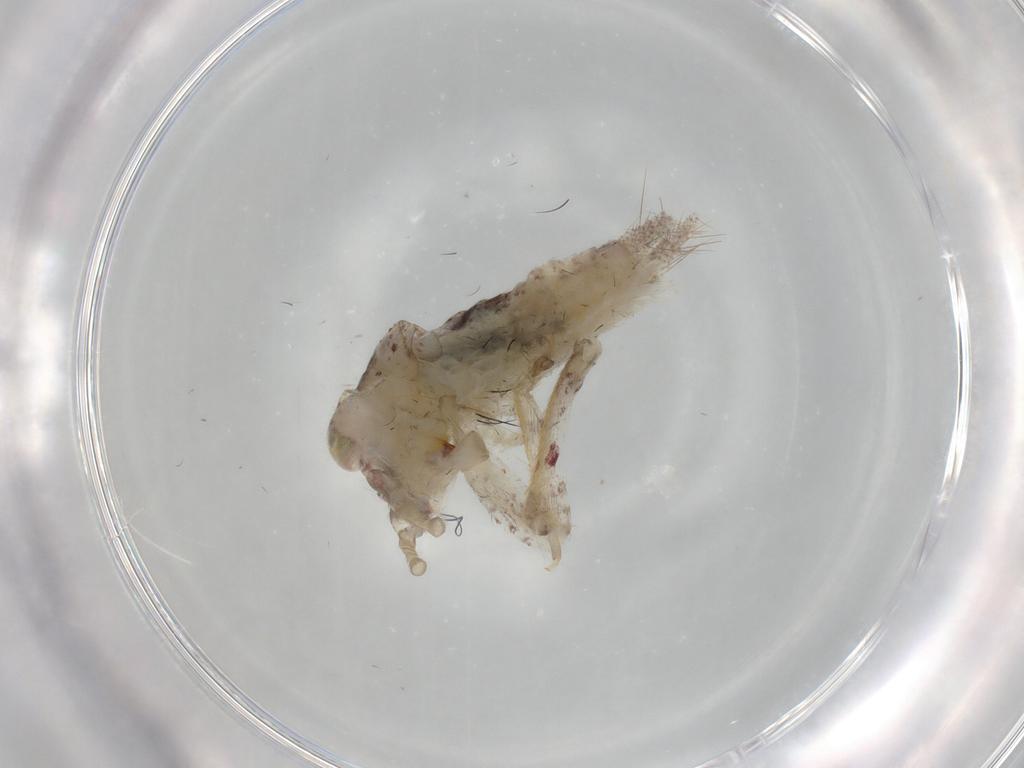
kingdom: Animalia
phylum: Arthropoda
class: Insecta
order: Orthoptera
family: Gryllidae
